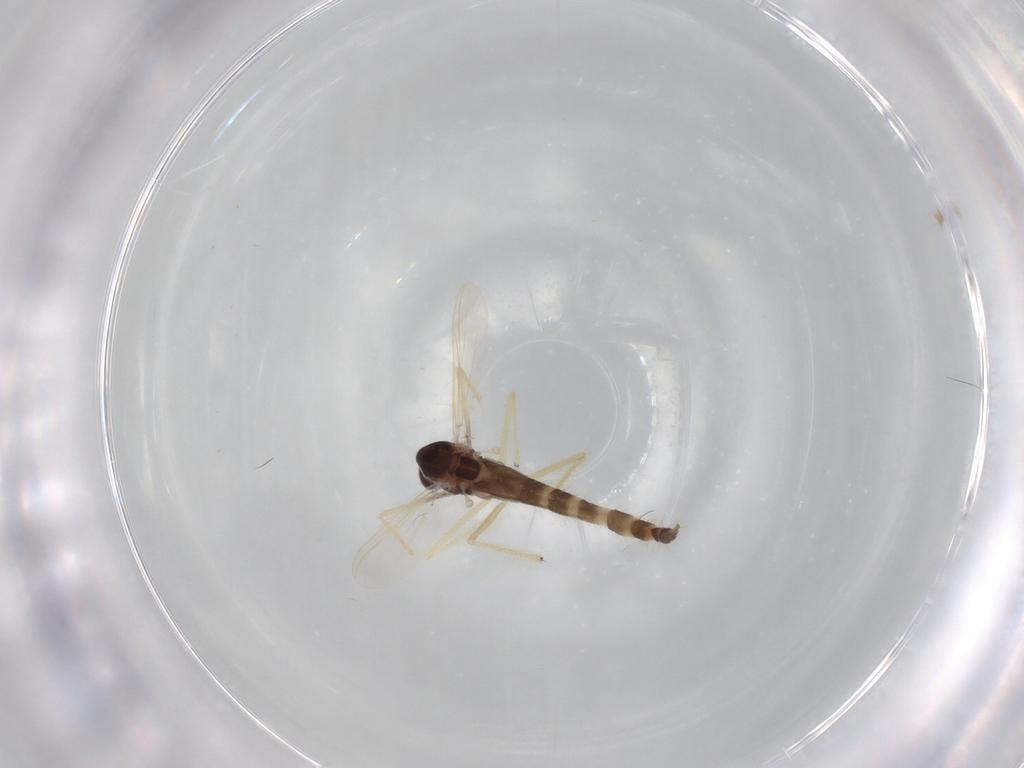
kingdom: Animalia
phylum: Arthropoda
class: Insecta
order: Diptera
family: Chironomidae
